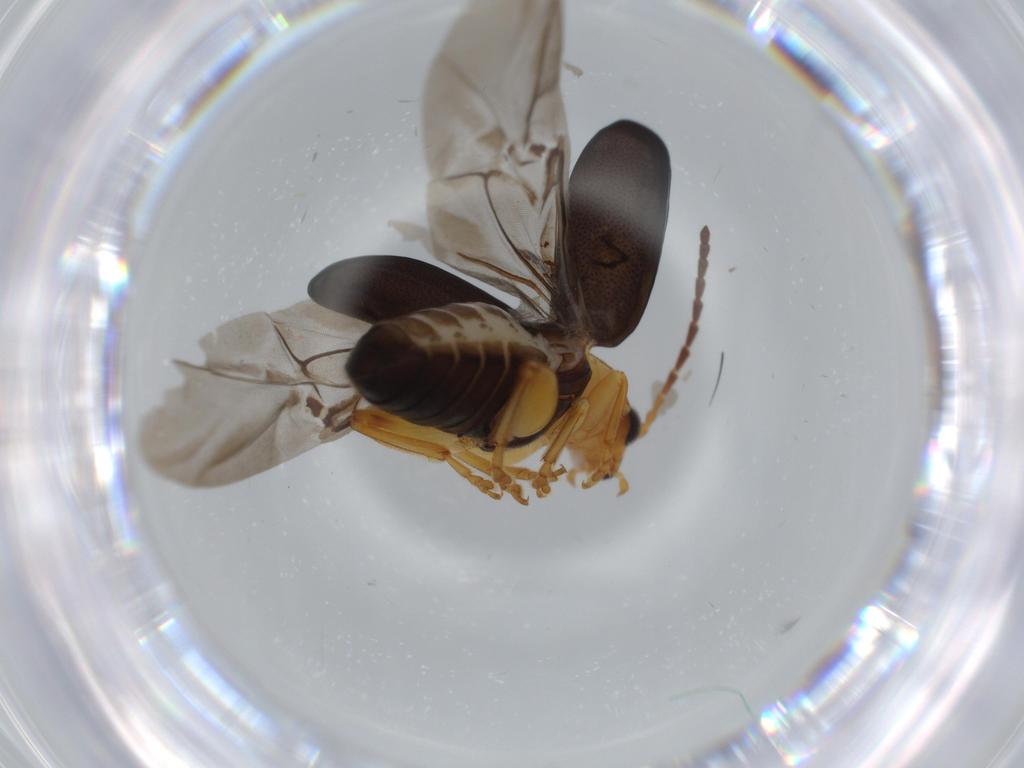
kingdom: Animalia
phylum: Arthropoda
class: Insecta
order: Coleoptera
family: Chrysomelidae
